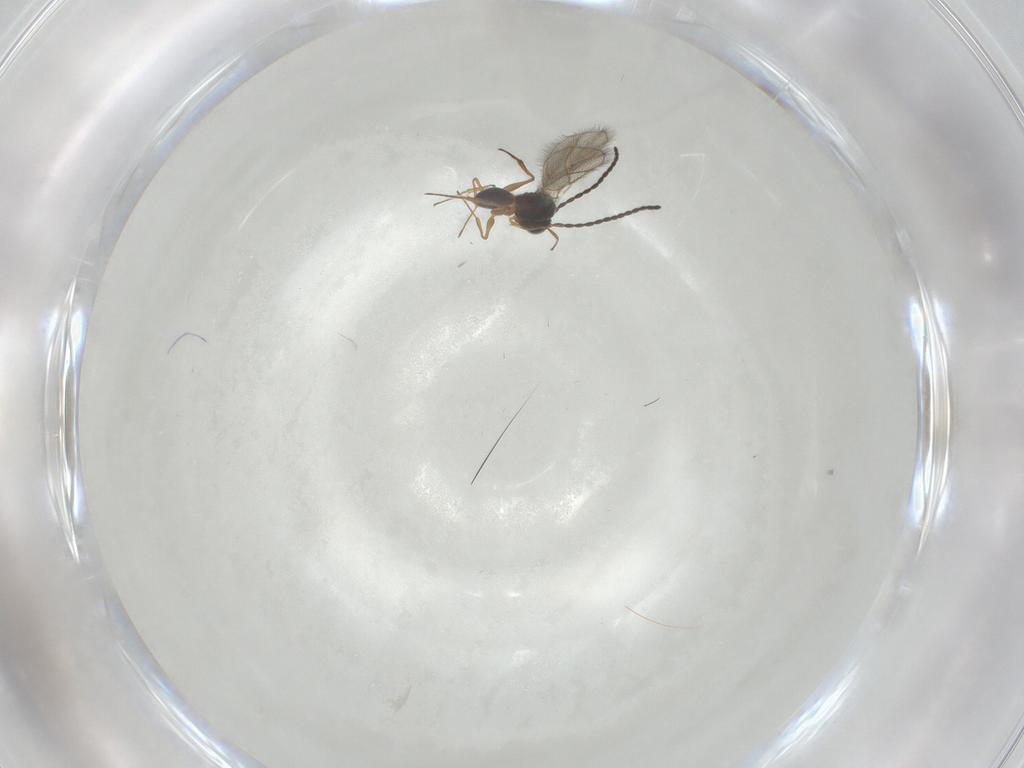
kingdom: Animalia
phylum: Arthropoda
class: Insecta
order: Hymenoptera
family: Figitidae
